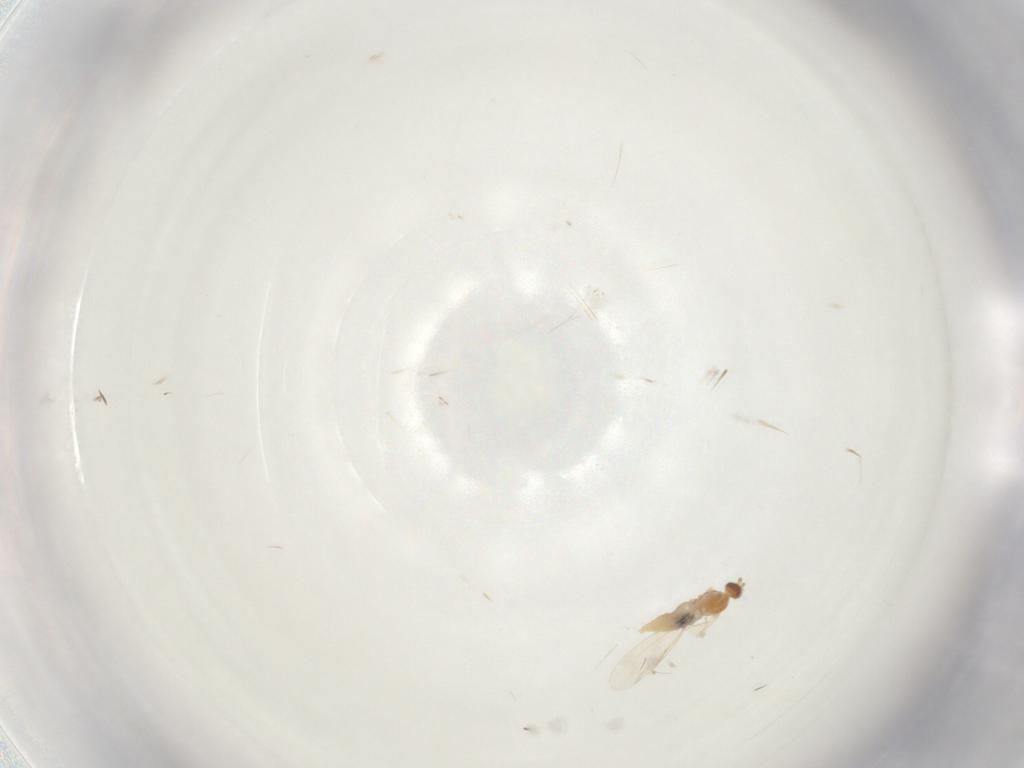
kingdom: Animalia
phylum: Arthropoda
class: Insecta
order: Diptera
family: Cecidomyiidae
